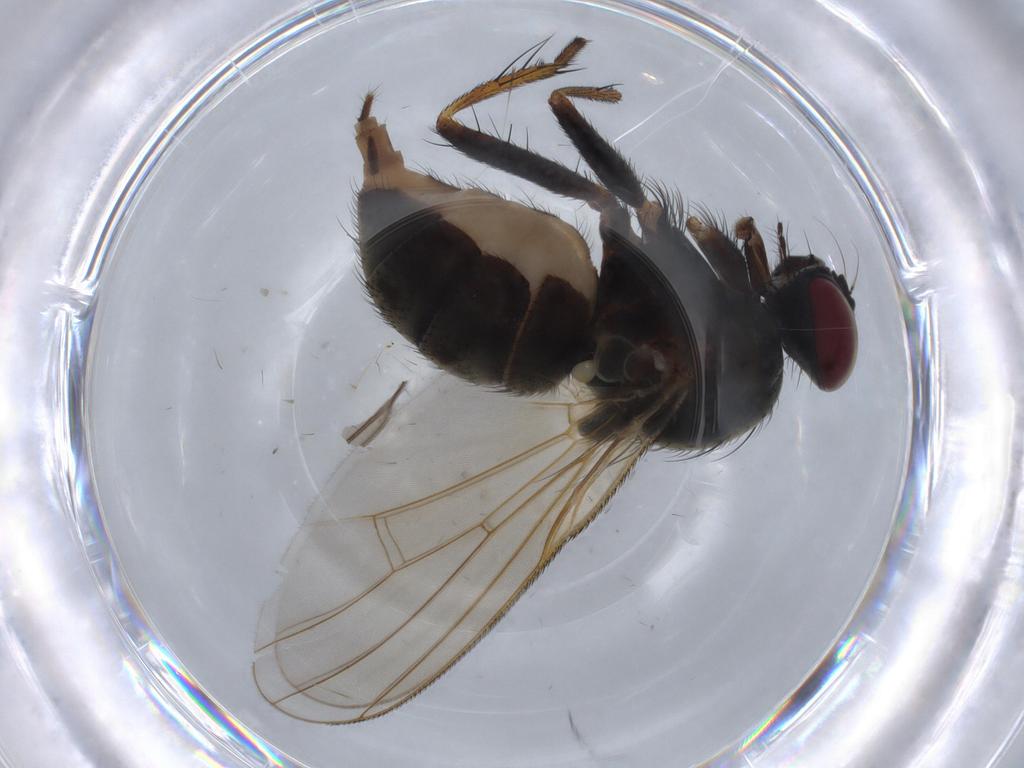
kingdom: Animalia
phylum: Arthropoda
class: Insecta
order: Diptera
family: Muscidae
